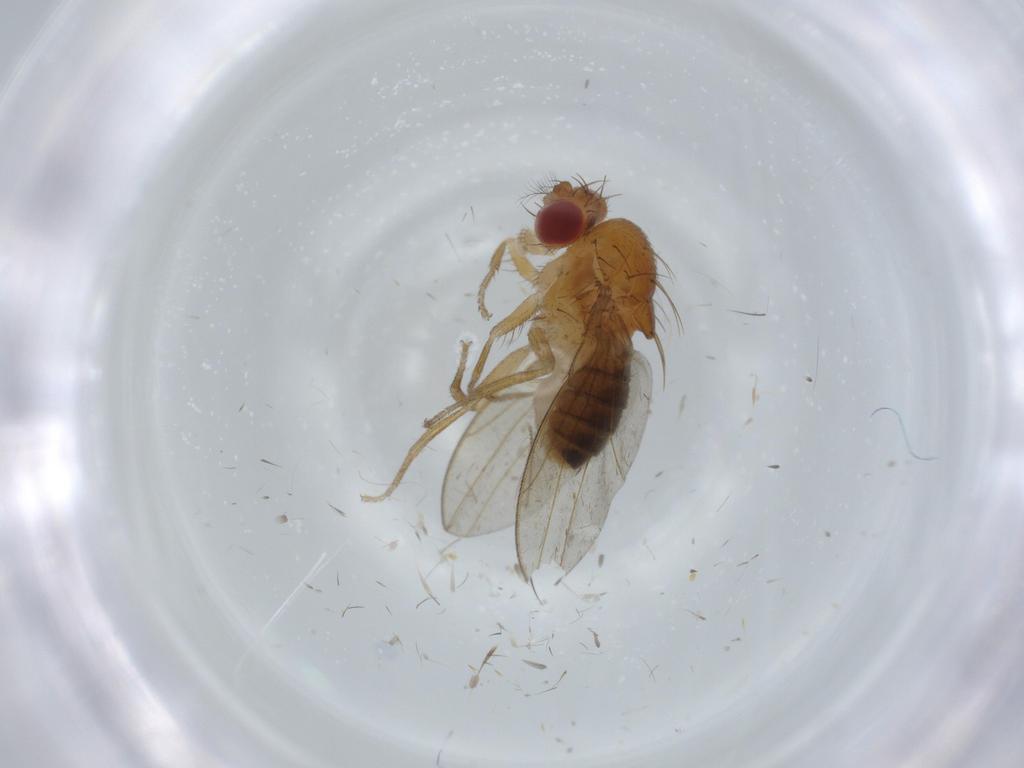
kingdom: Animalia
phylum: Arthropoda
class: Insecta
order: Diptera
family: Drosophilidae
